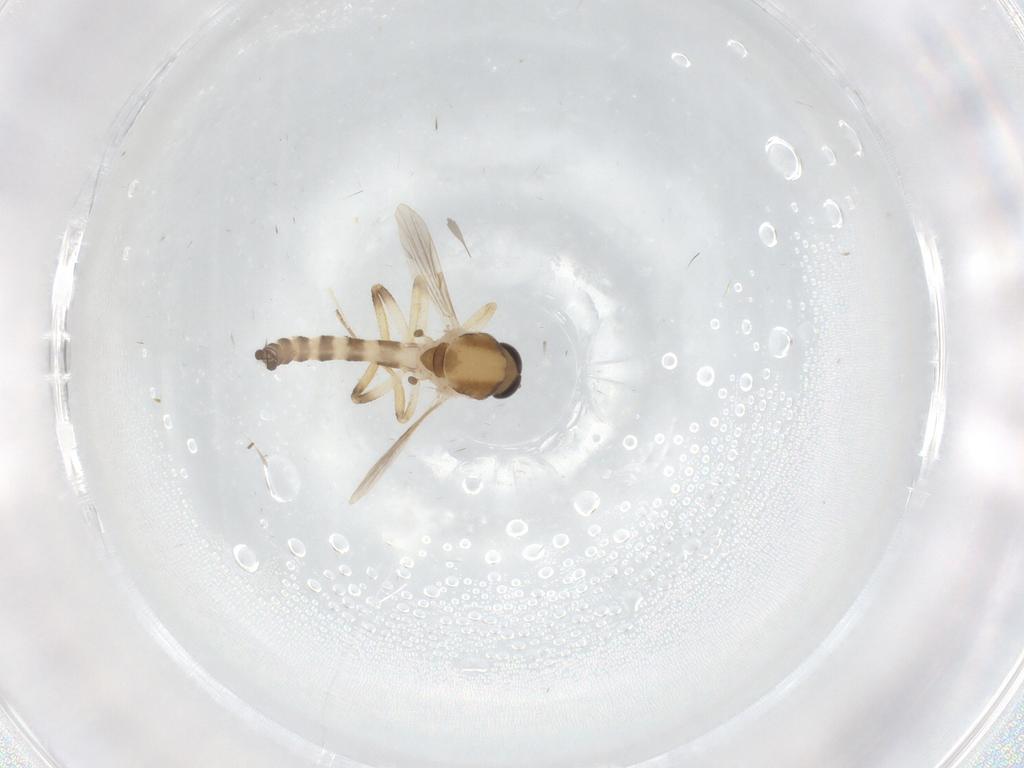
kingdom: Animalia
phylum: Arthropoda
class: Insecta
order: Diptera
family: Ceratopogonidae
